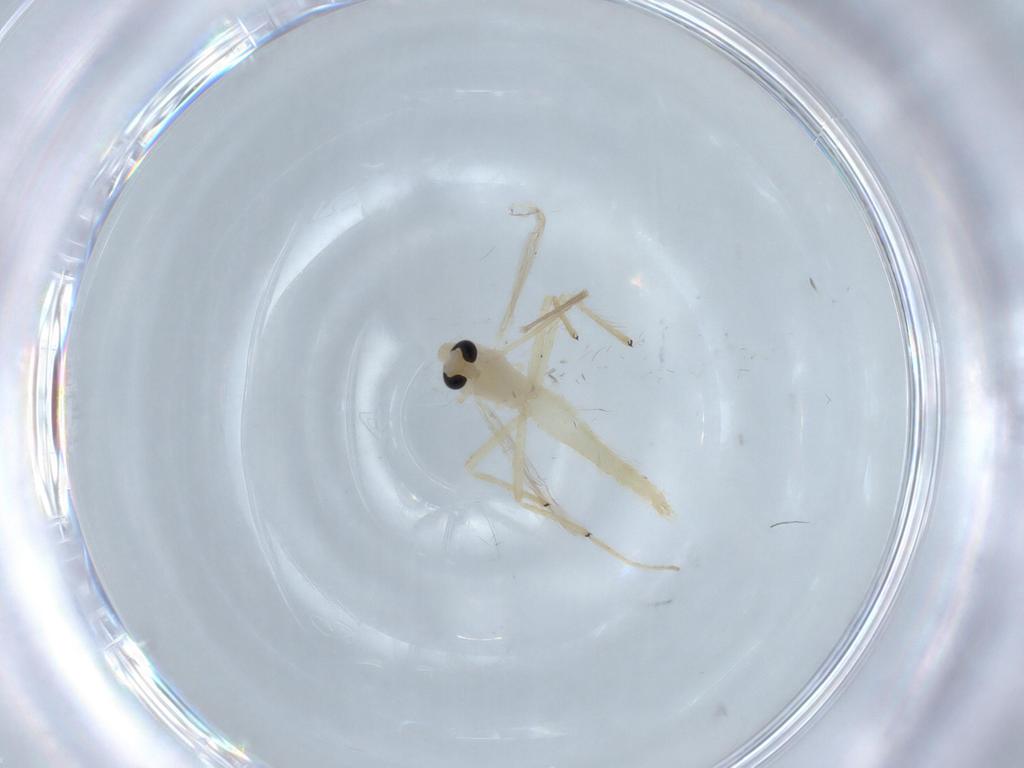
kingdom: Animalia
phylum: Arthropoda
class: Insecta
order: Diptera
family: Chironomidae
